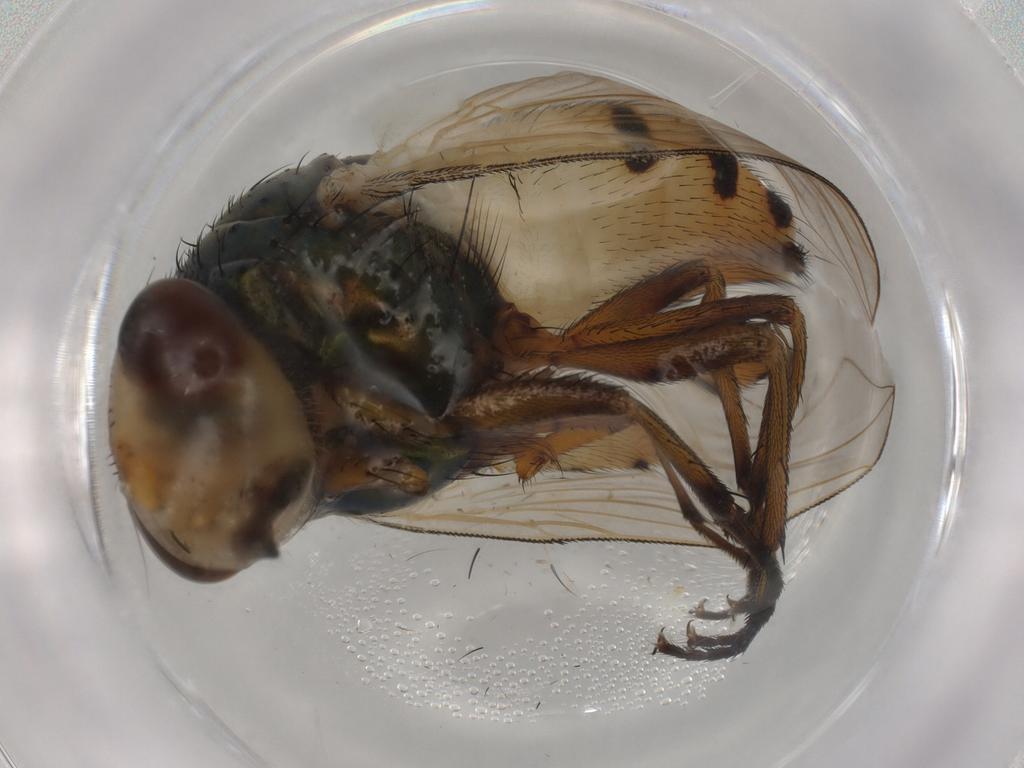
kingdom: Animalia
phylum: Arthropoda
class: Insecta
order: Diptera
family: Calliphoridae
